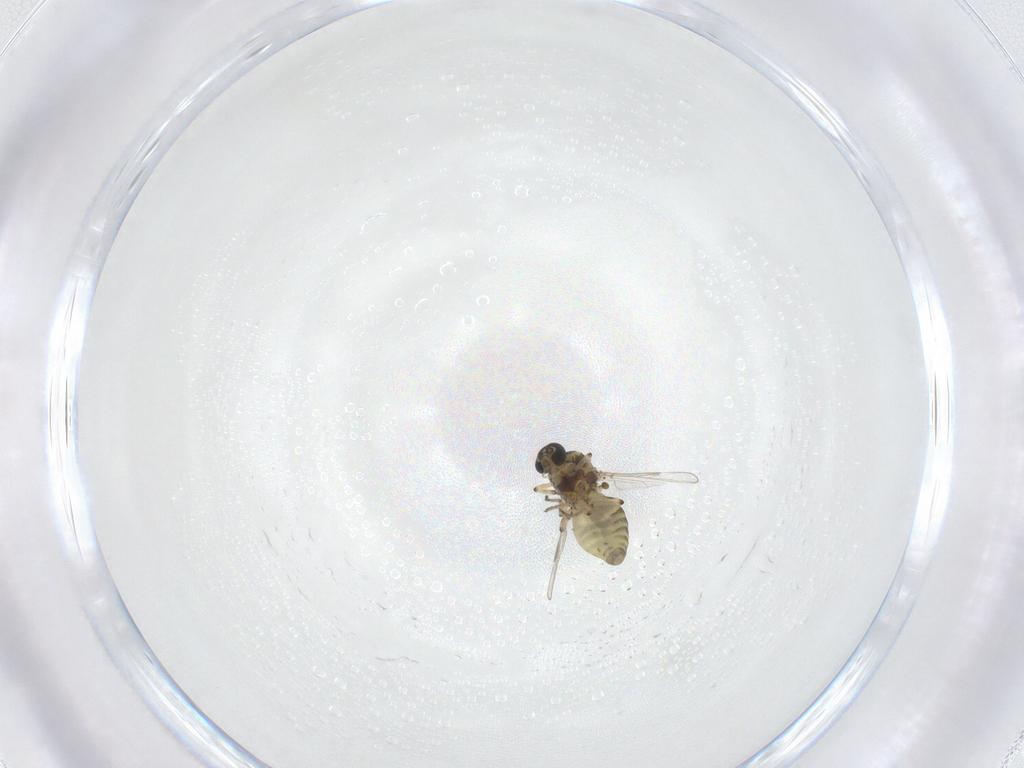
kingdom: Animalia
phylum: Arthropoda
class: Insecta
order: Diptera
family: Ceratopogonidae
